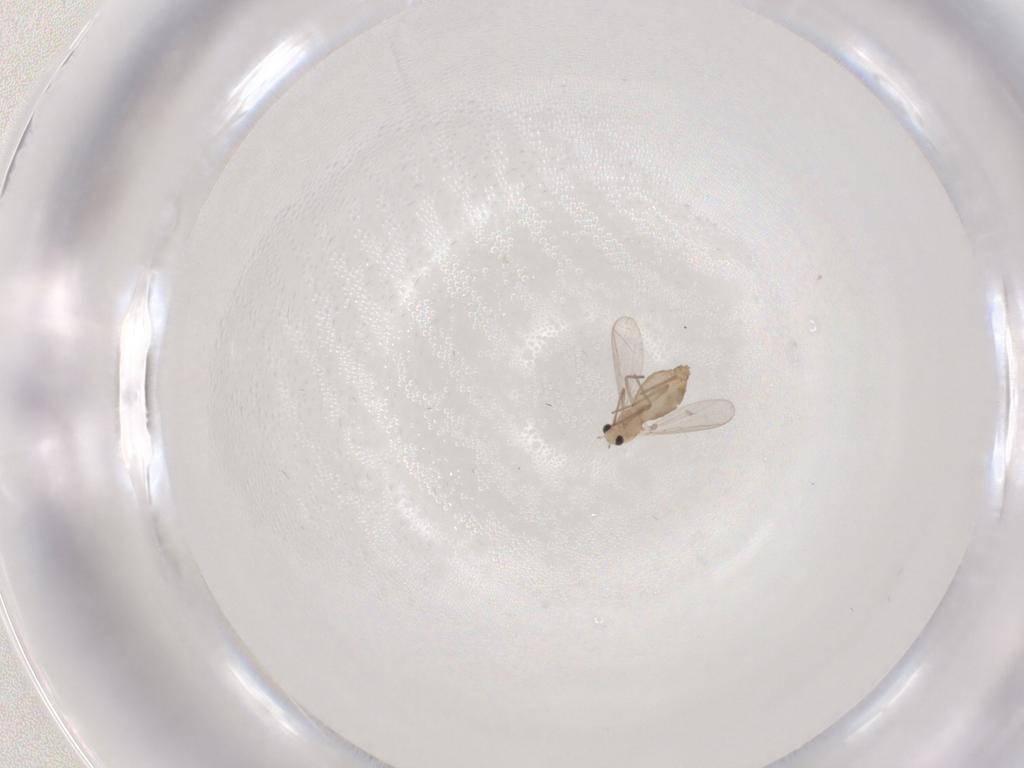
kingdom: Animalia
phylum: Arthropoda
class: Insecta
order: Diptera
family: Chironomidae
